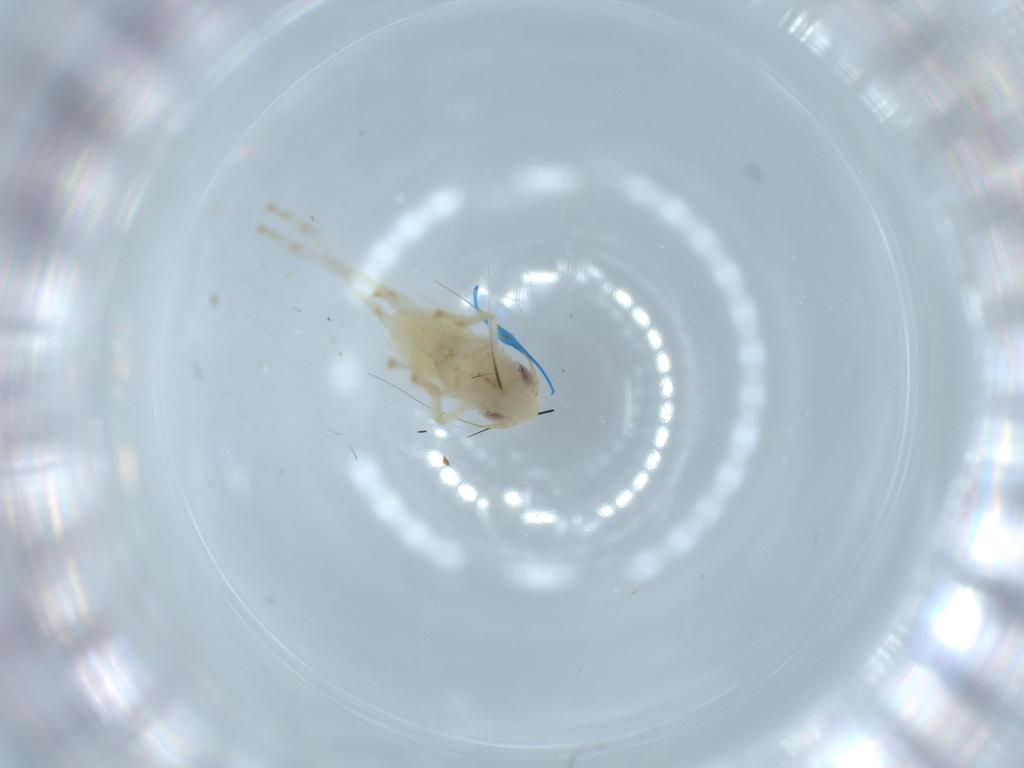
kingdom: Animalia
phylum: Arthropoda
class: Insecta
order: Hemiptera
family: Cicadellidae
